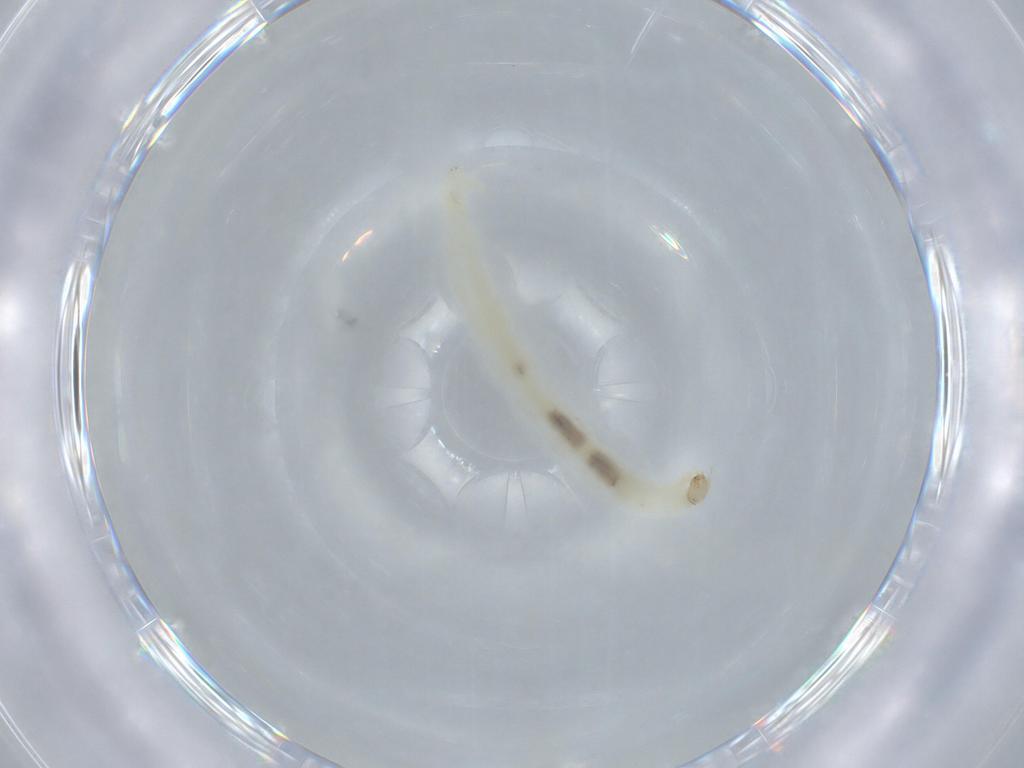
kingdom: Animalia
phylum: Arthropoda
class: Insecta
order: Diptera
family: Chironomidae
